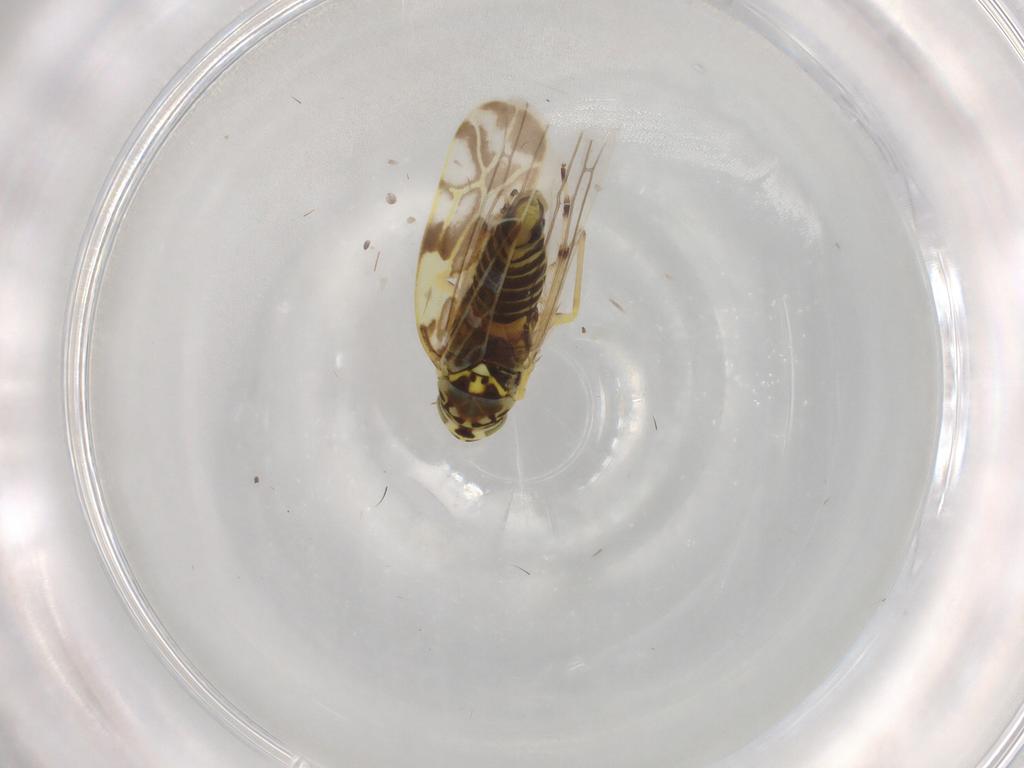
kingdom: Animalia
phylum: Arthropoda
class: Insecta
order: Hemiptera
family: Cicadellidae
